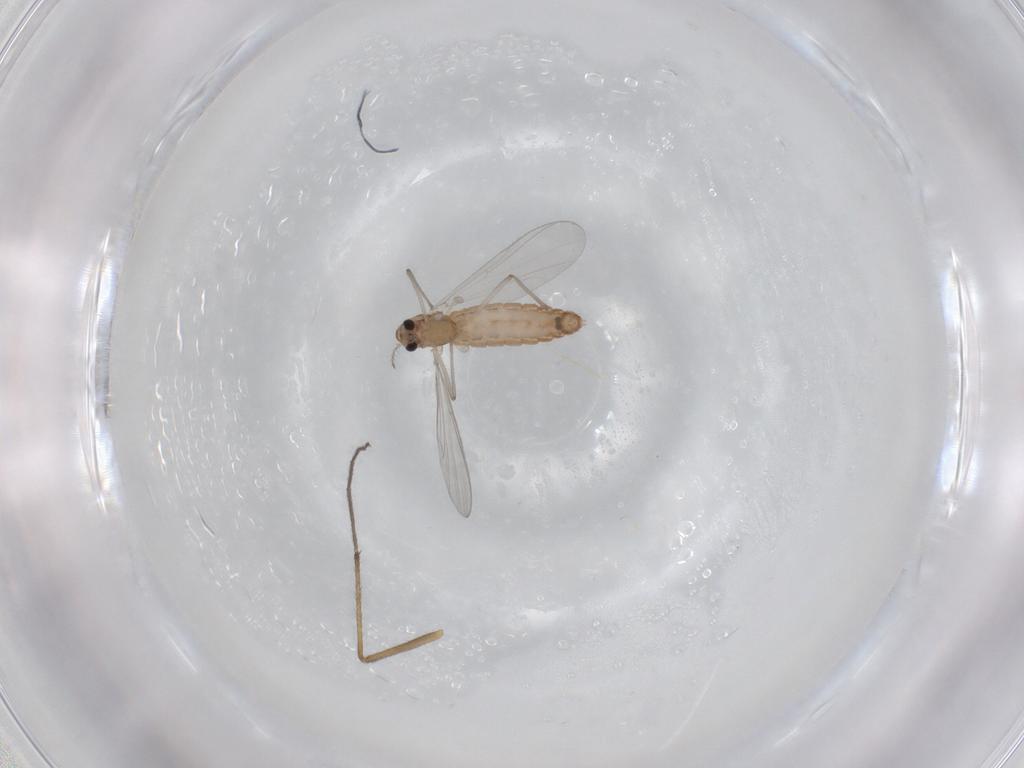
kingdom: Animalia
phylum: Arthropoda
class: Insecta
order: Diptera
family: Chironomidae
